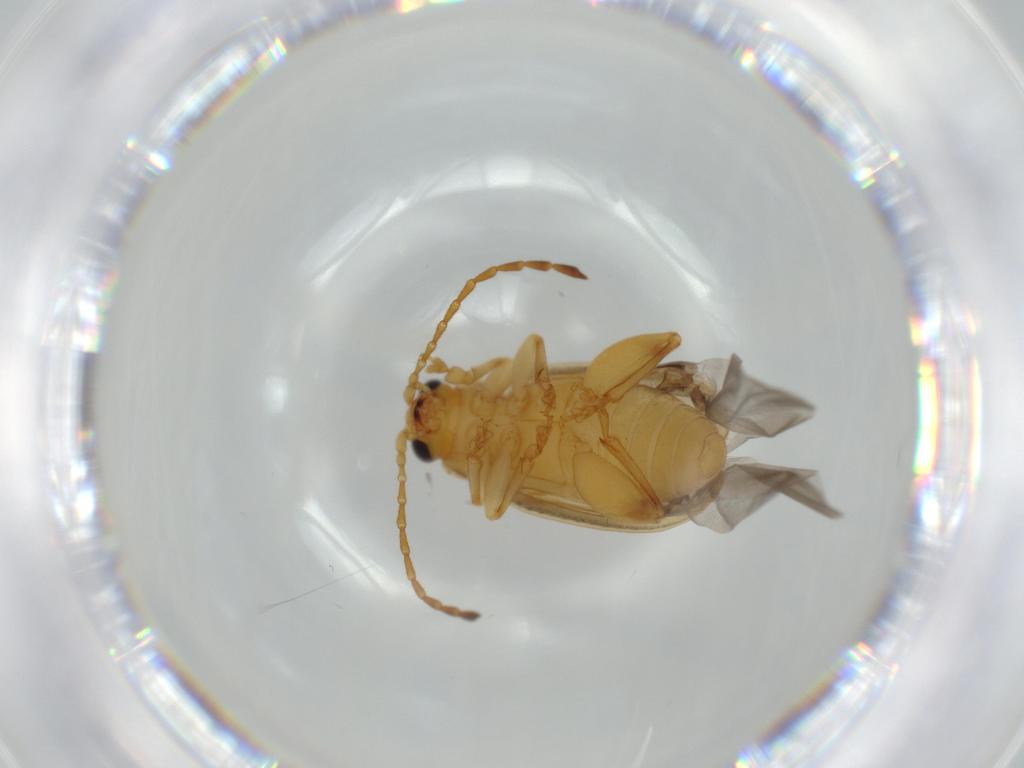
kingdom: Animalia
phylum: Arthropoda
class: Insecta
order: Coleoptera
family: Chrysomelidae
